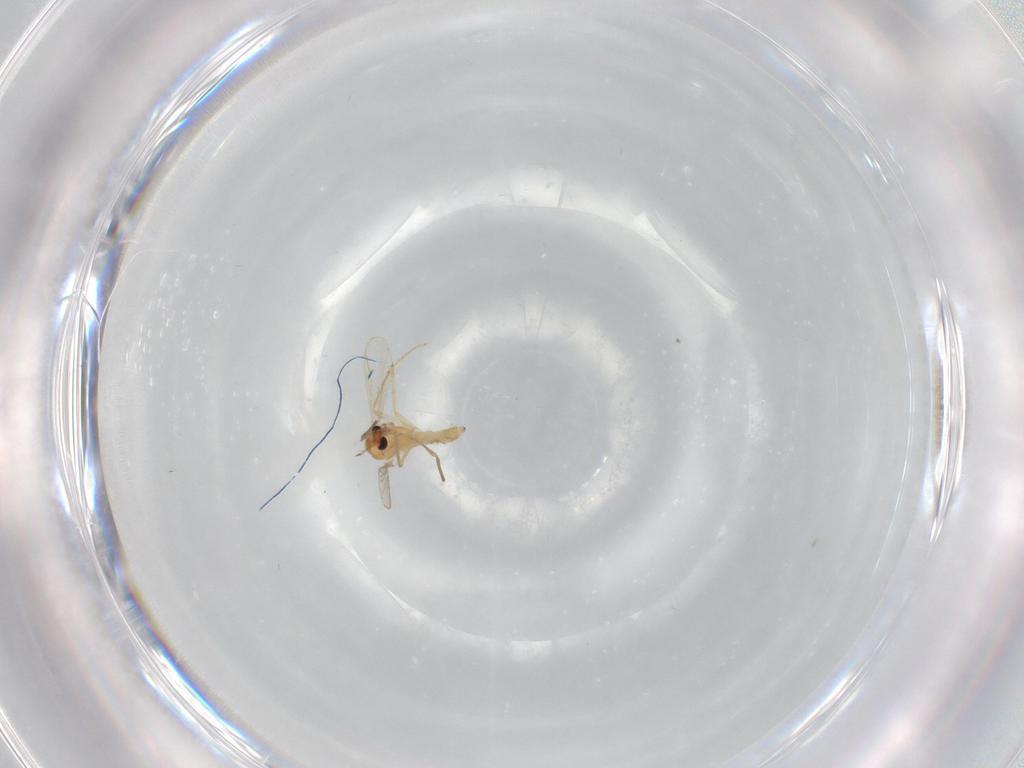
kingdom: Animalia
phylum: Arthropoda
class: Insecta
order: Diptera
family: Chironomidae
